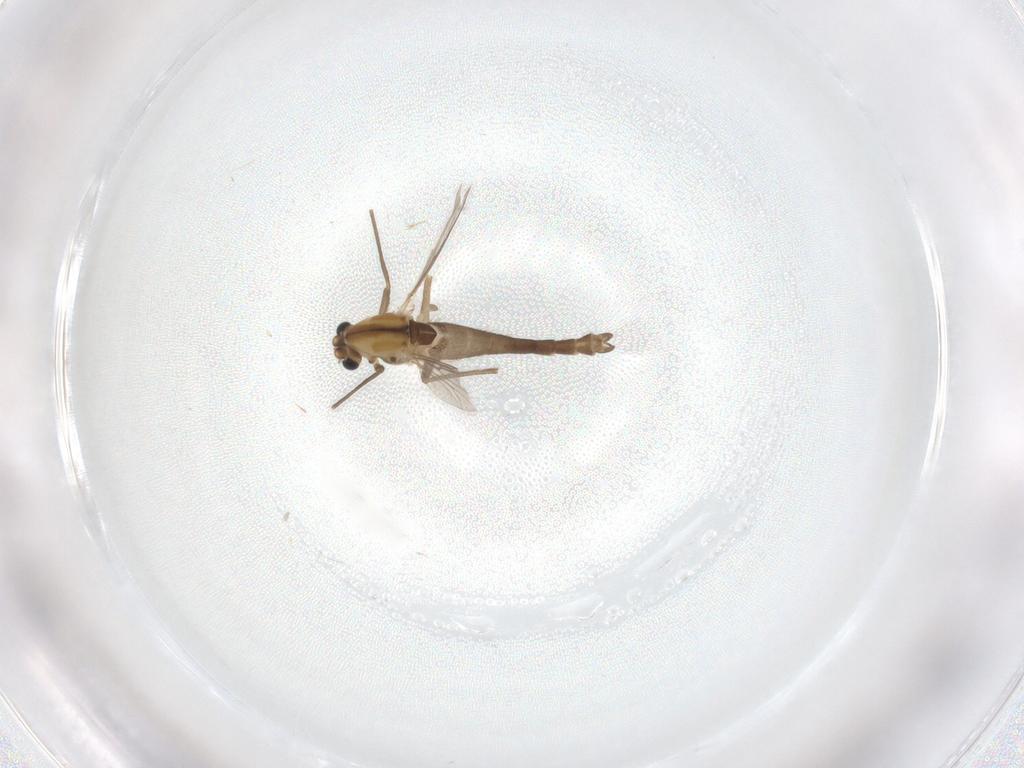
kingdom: Animalia
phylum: Arthropoda
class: Insecta
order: Diptera
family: Chironomidae
